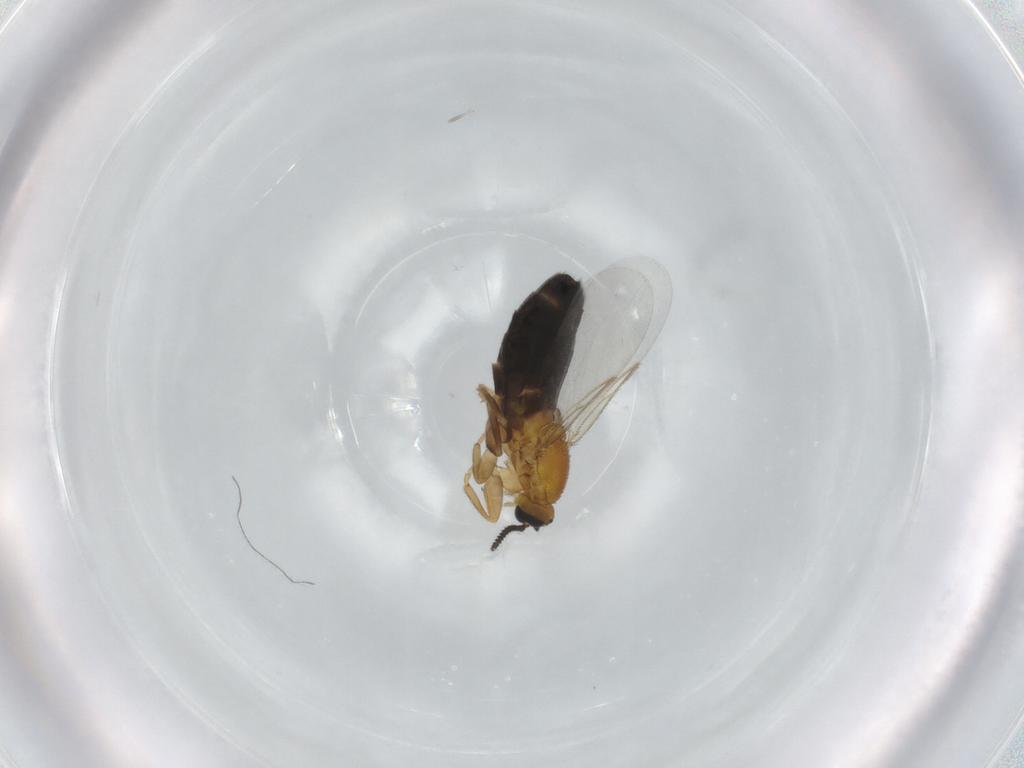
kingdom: Animalia
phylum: Arthropoda
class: Insecta
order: Diptera
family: Scatopsidae
